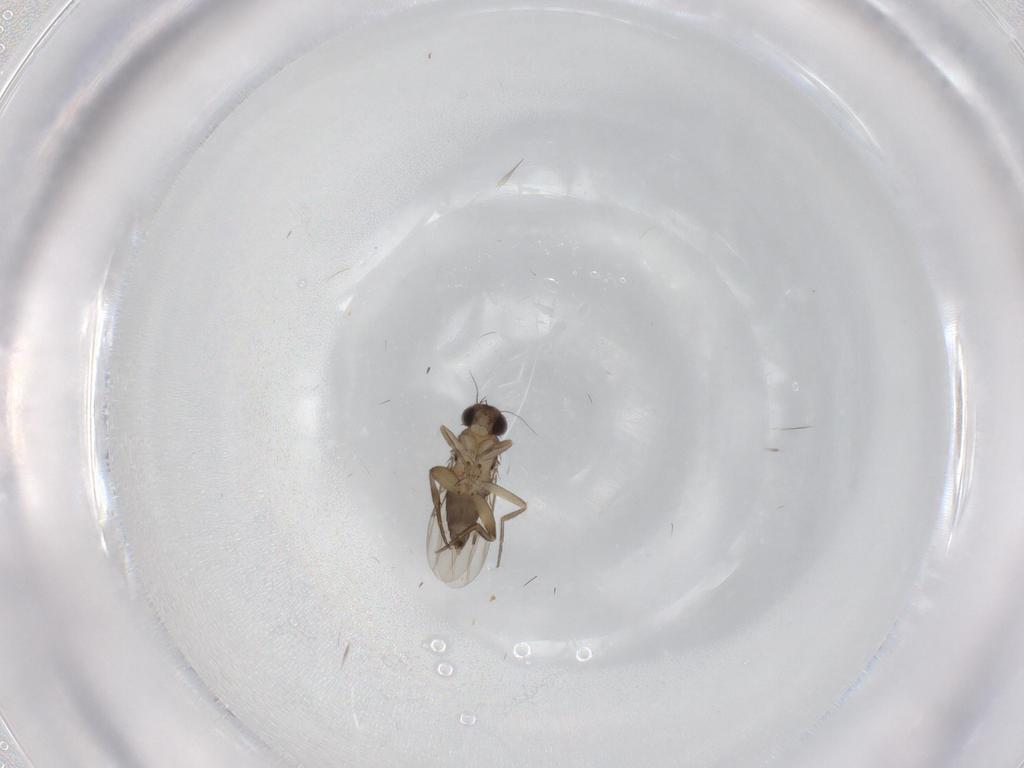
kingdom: Animalia
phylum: Arthropoda
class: Insecta
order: Diptera
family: Phoridae
